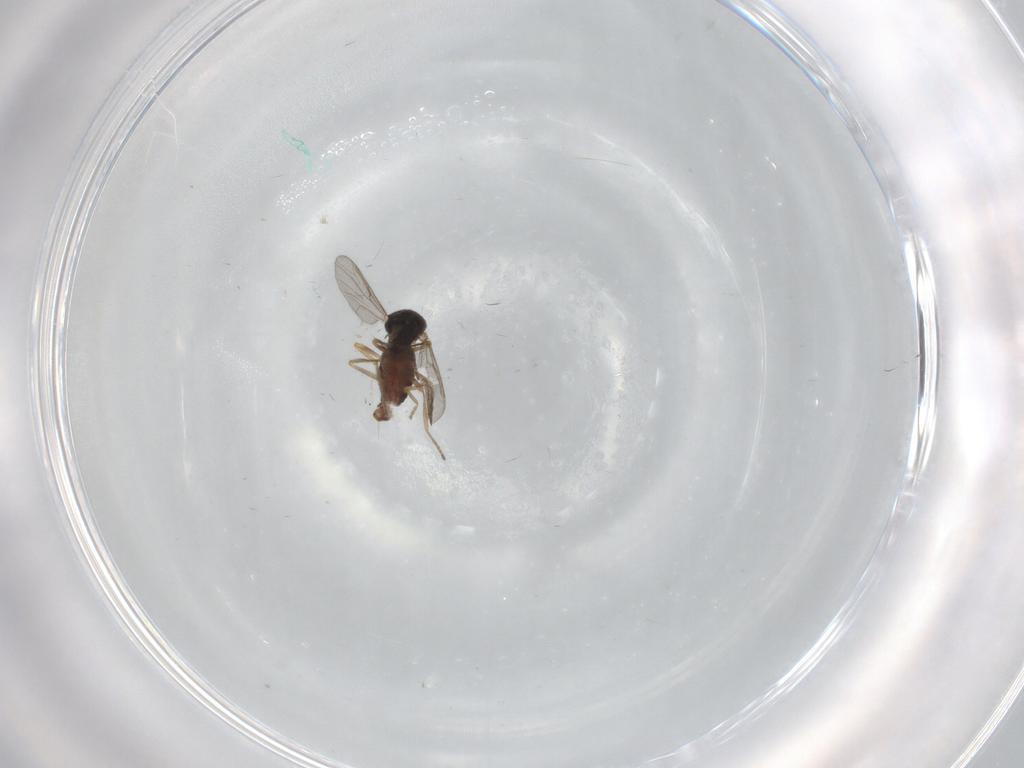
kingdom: Animalia
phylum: Arthropoda
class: Insecta
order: Diptera
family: Ceratopogonidae
